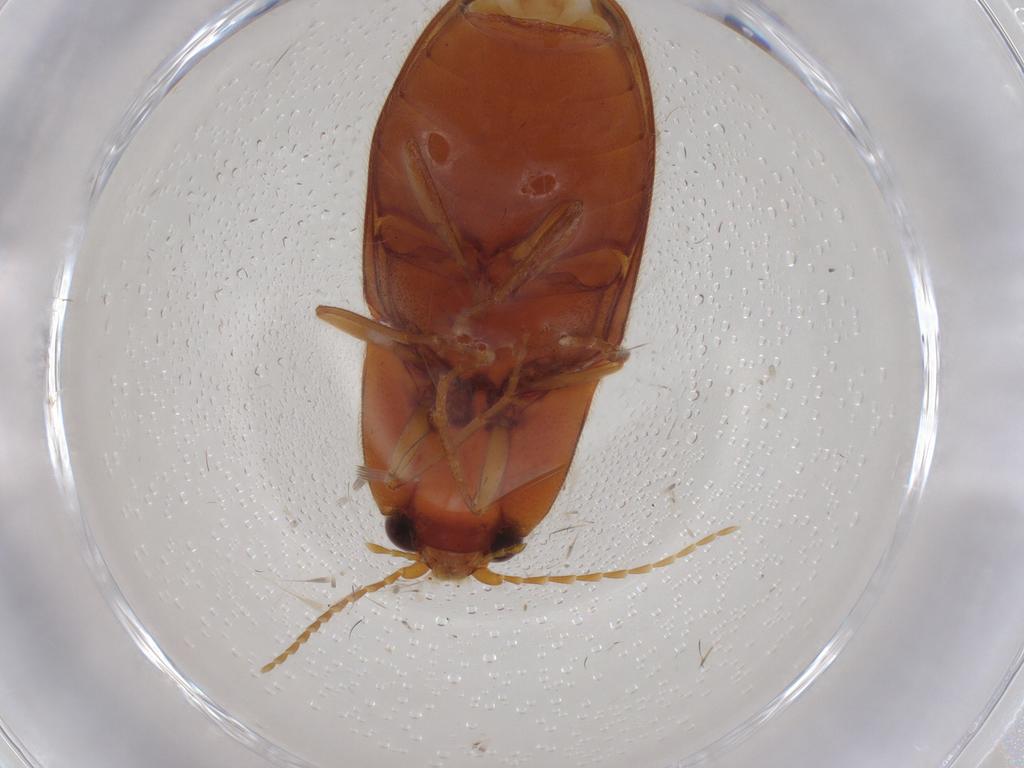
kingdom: Animalia
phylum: Arthropoda
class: Insecta
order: Coleoptera
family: Elateridae
